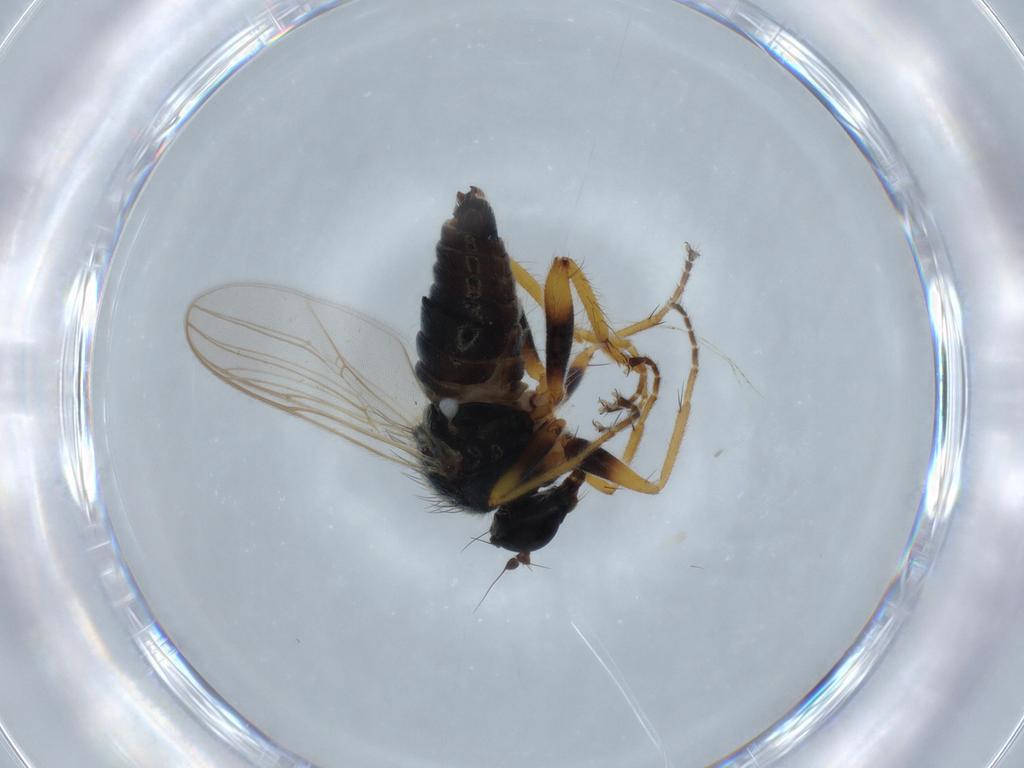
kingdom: Animalia
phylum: Arthropoda
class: Insecta
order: Diptera
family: Hybotidae
